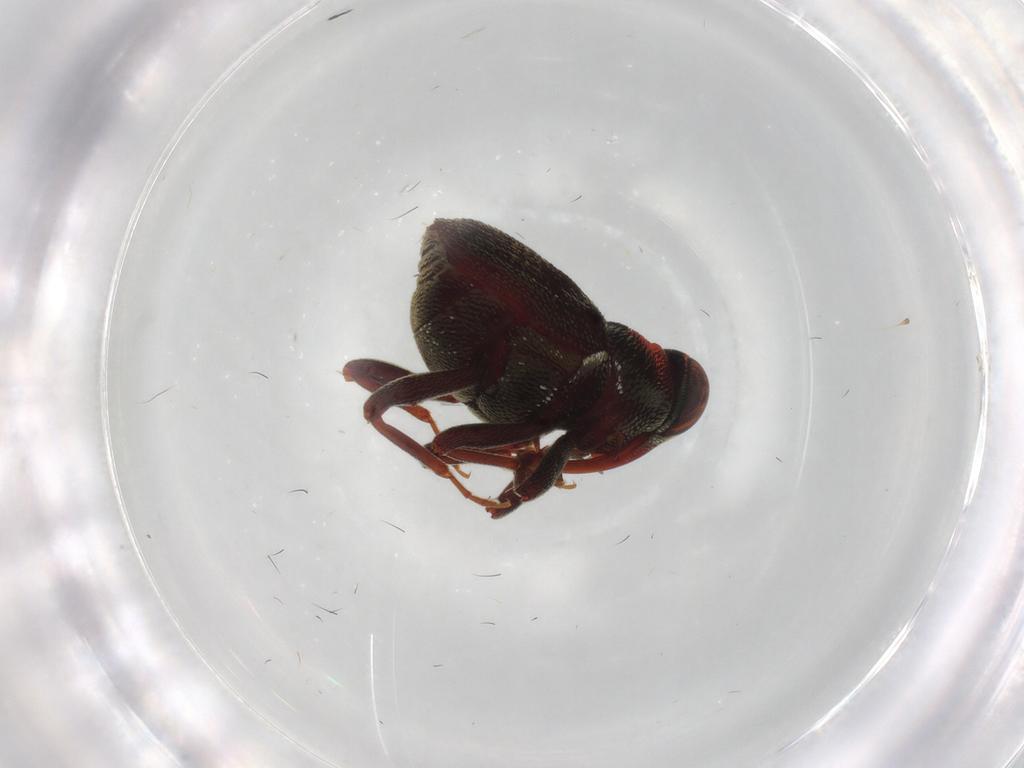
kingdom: Animalia
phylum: Arthropoda
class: Insecta
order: Coleoptera
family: Curculionidae
